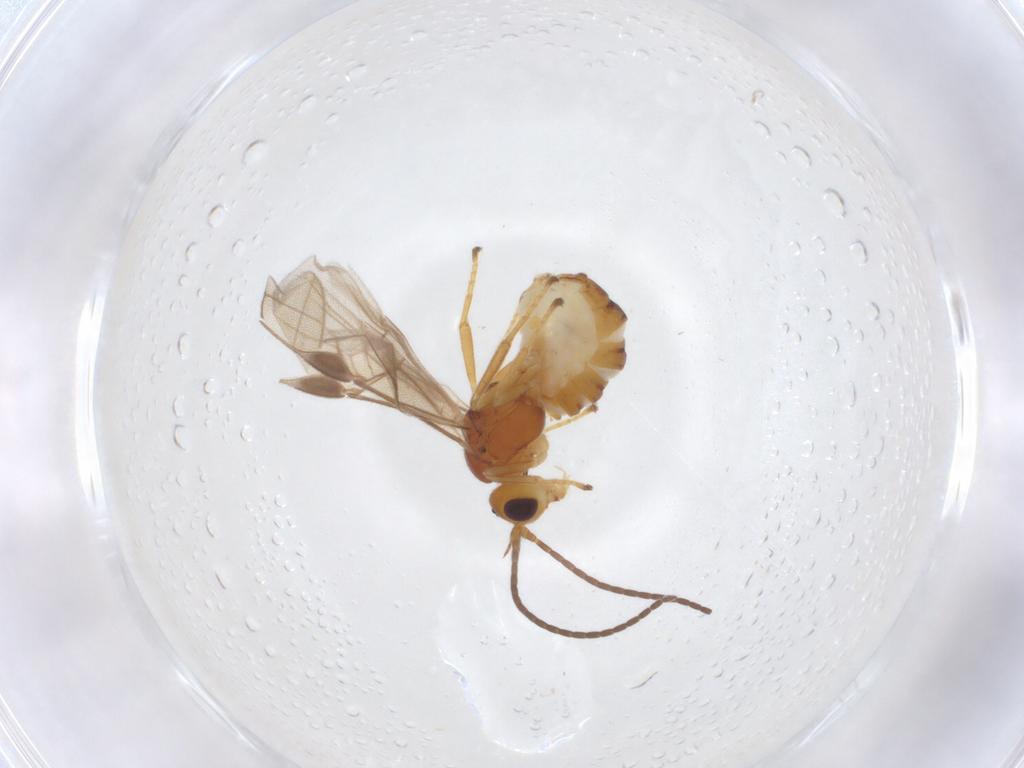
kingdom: Animalia
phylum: Arthropoda
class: Insecta
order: Hymenoptera
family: Braconidae
